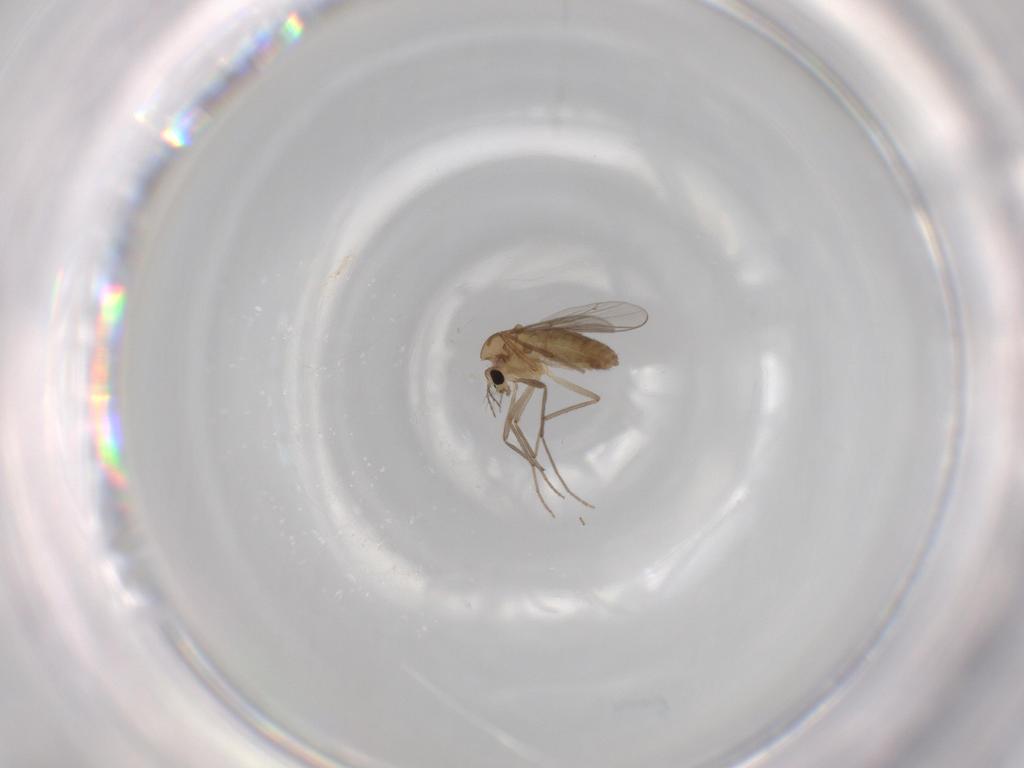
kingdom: Animalia
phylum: Arthropoda
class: Insecta
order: Diptera
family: Chironomidae
